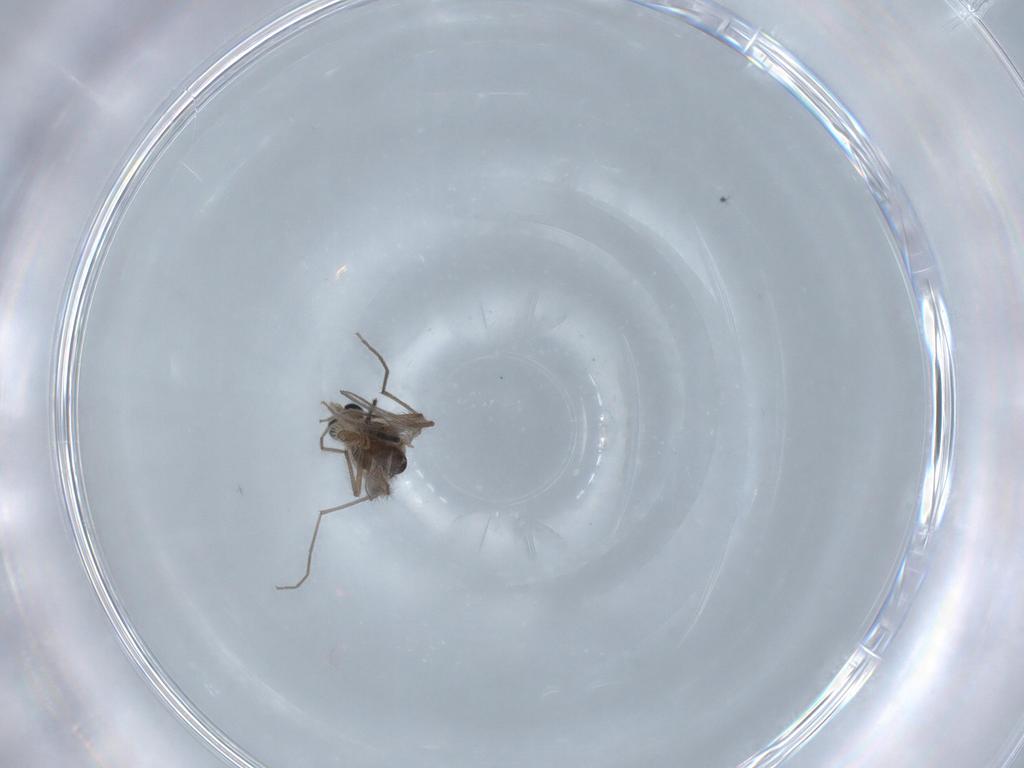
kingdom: Animalia
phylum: Arthropoda
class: Insecta
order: Diptera
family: Chironomidae
